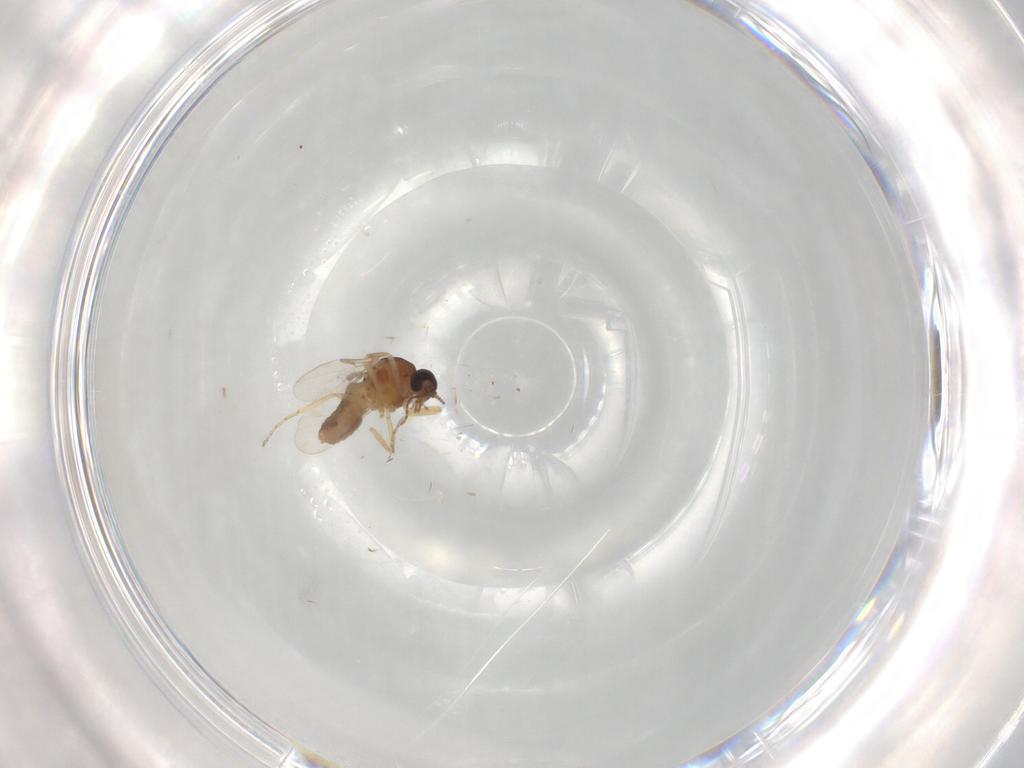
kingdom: Animalia
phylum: Arthropoda
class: Insecta
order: Diptera
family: Ceratopogonidae
